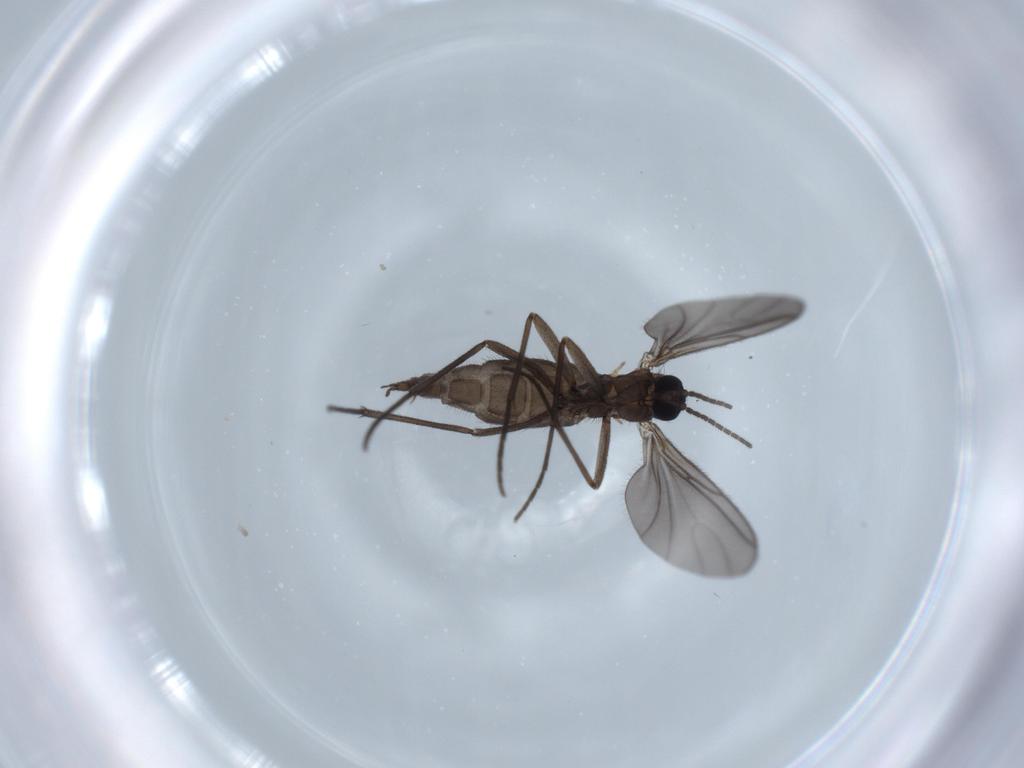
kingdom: Animalia
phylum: Arthropoda
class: Insecta
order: Diptera
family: Sciaridae
